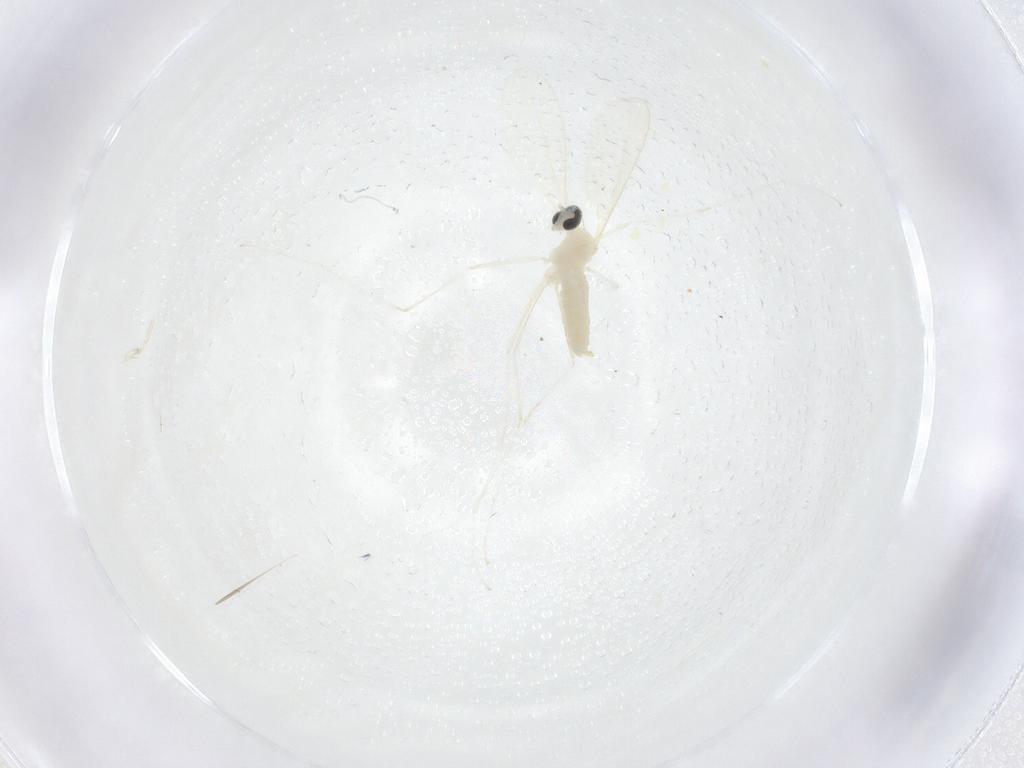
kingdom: Animalia
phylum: Arthropoda
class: Insecta
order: Diptera
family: Cecidomyiidae
